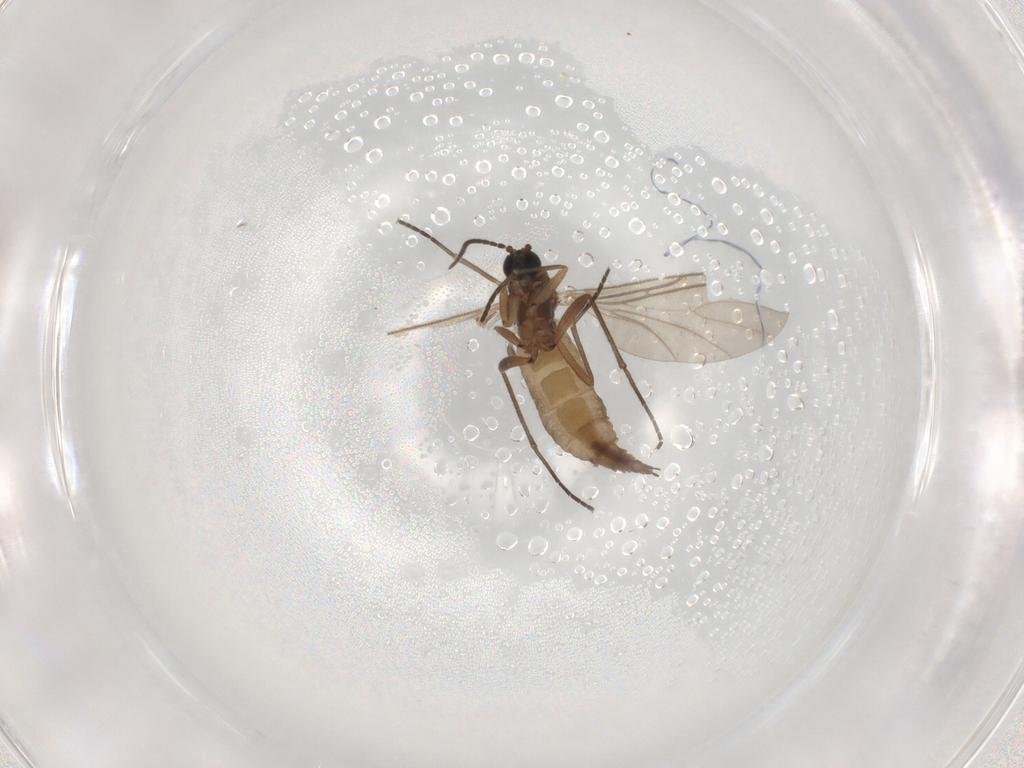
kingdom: Animalia
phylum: Arthropoda
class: Insecta
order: Diptera
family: Sciaridae
